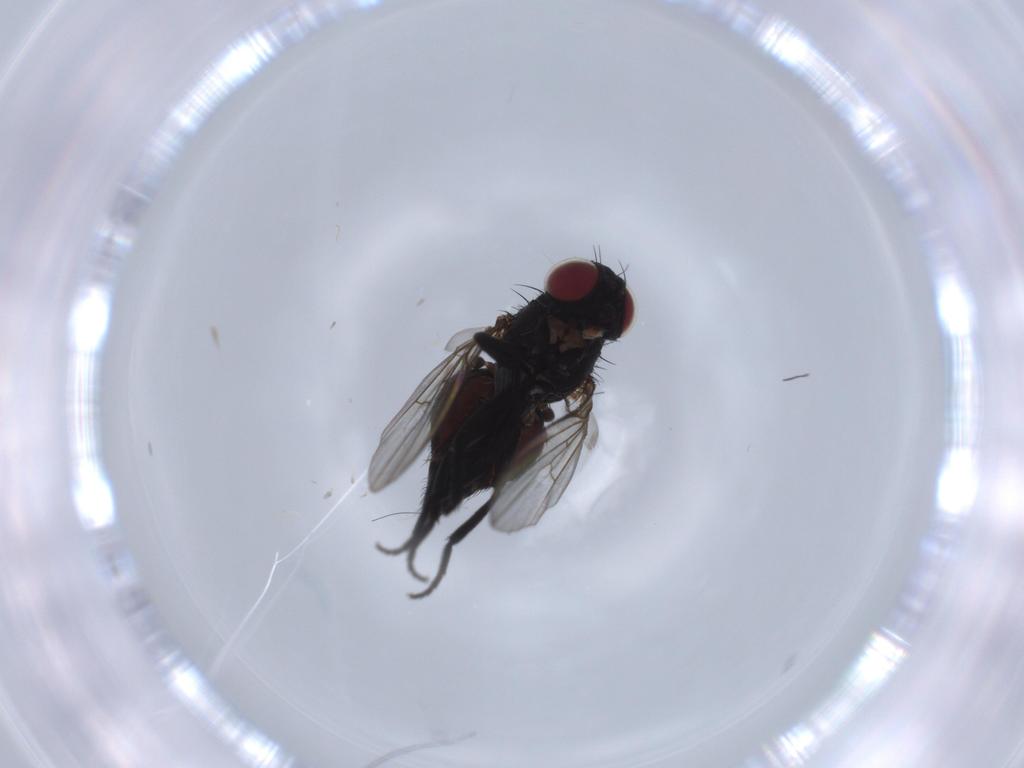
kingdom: Animalia
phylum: Arthropoda
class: Insecta
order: Diptera
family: Agromyzidae
